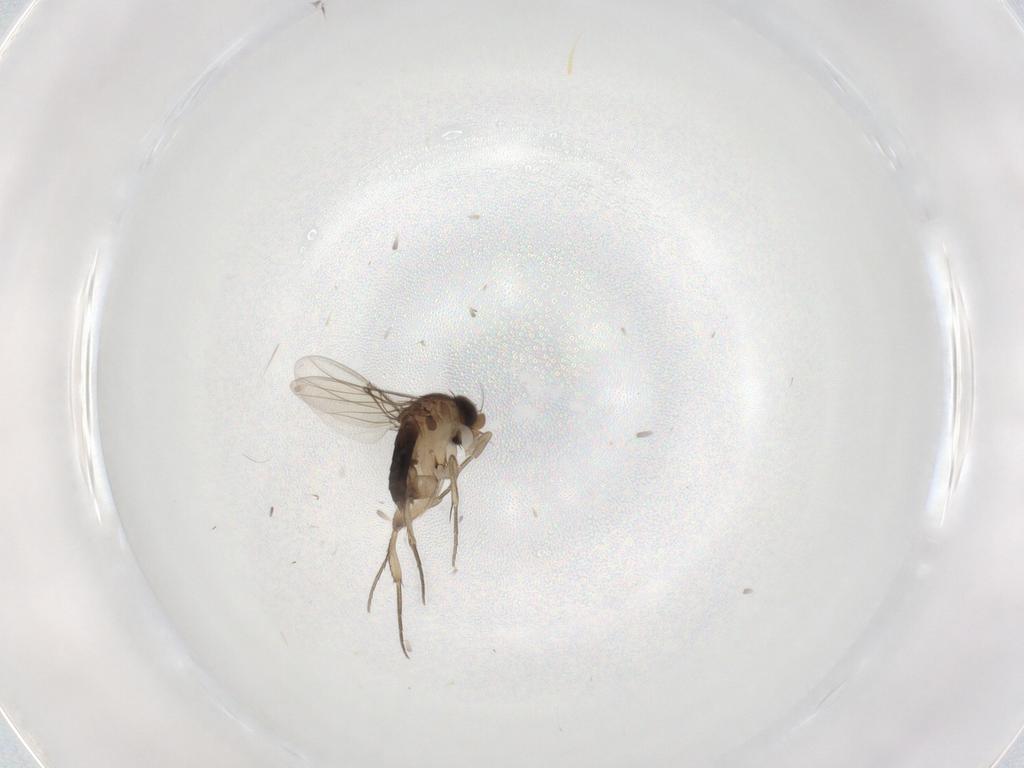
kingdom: Animalia
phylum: Arthropoda
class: Insecta
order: Diptera
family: Phoridae
